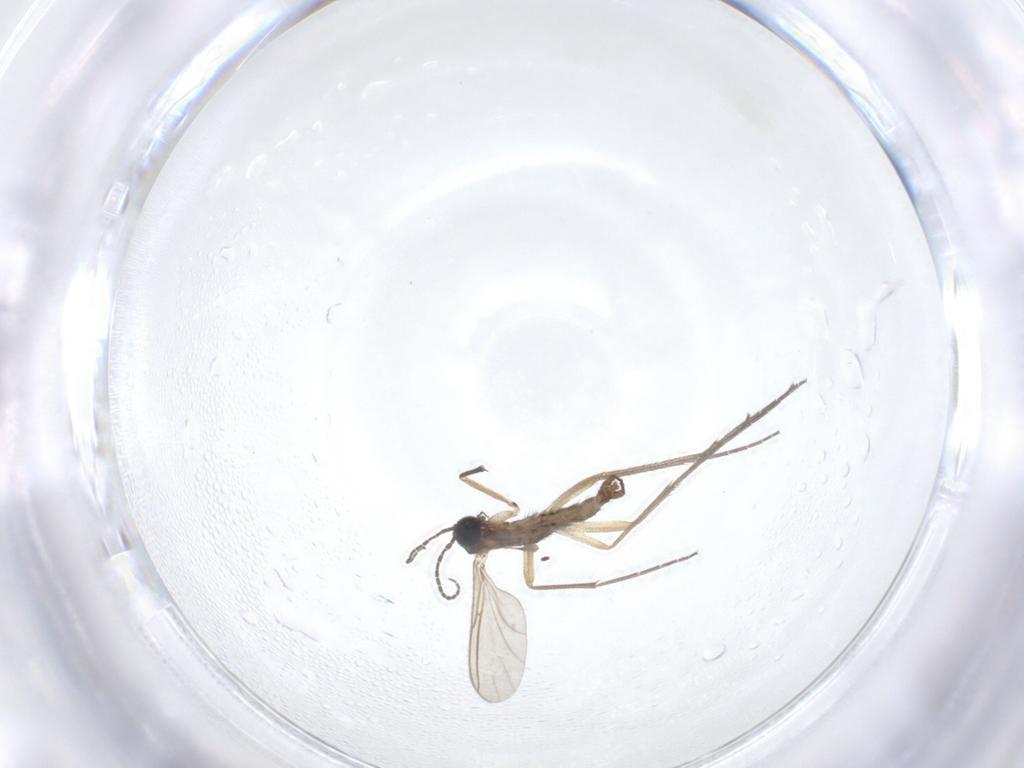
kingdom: Animalia
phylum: Arthropoda
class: Insecta
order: Diptera
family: Sciaridae
